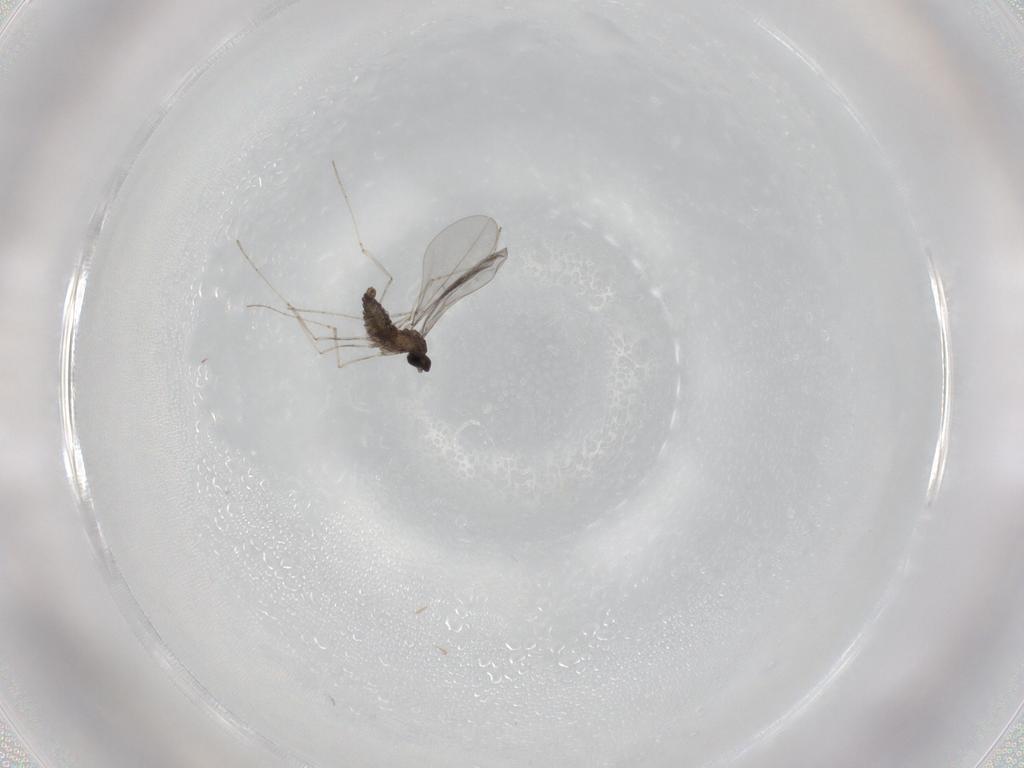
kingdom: Animalia
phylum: Arthropoda
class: Insecta
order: Diptera
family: Cecidomyiidae
